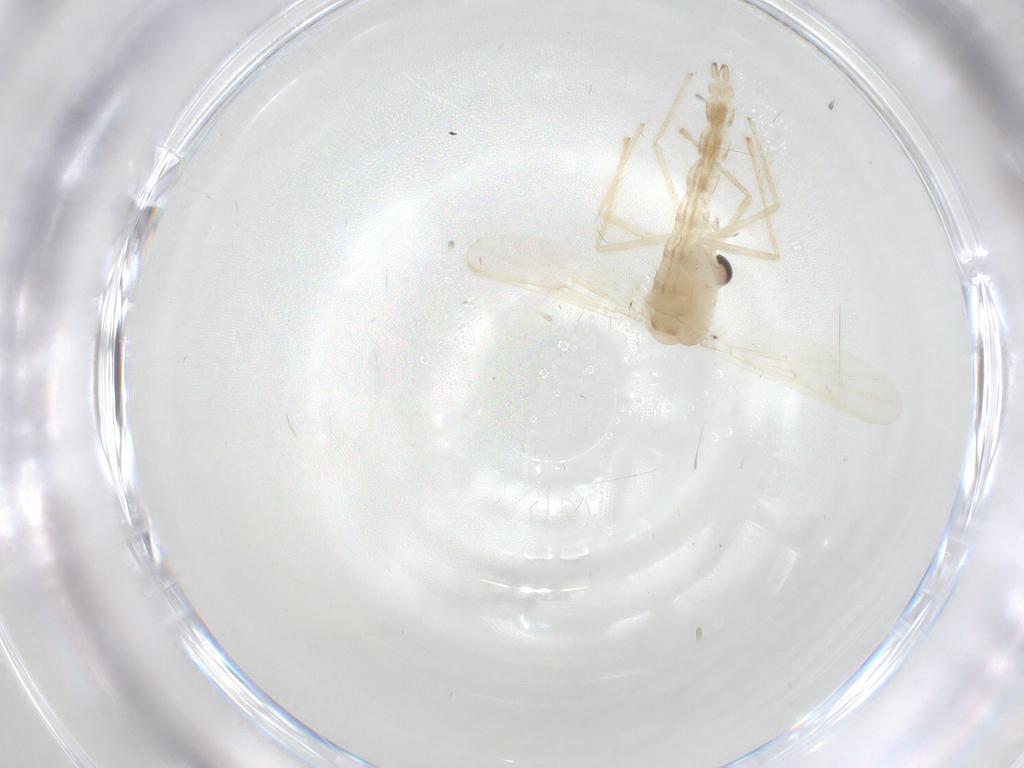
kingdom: Animalia
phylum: Arthropoda
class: Insecta
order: Diptera
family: Chironomidae
